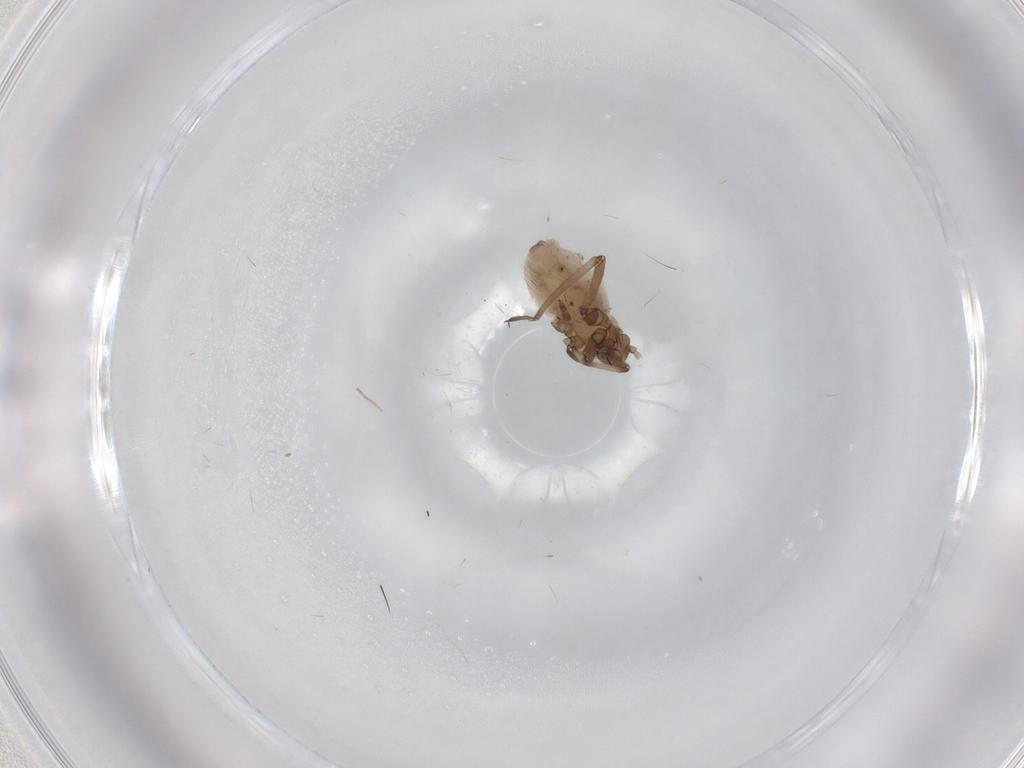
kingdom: Animalia
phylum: Arthropoda
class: Insecta
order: Hemiptera
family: Aphididae
